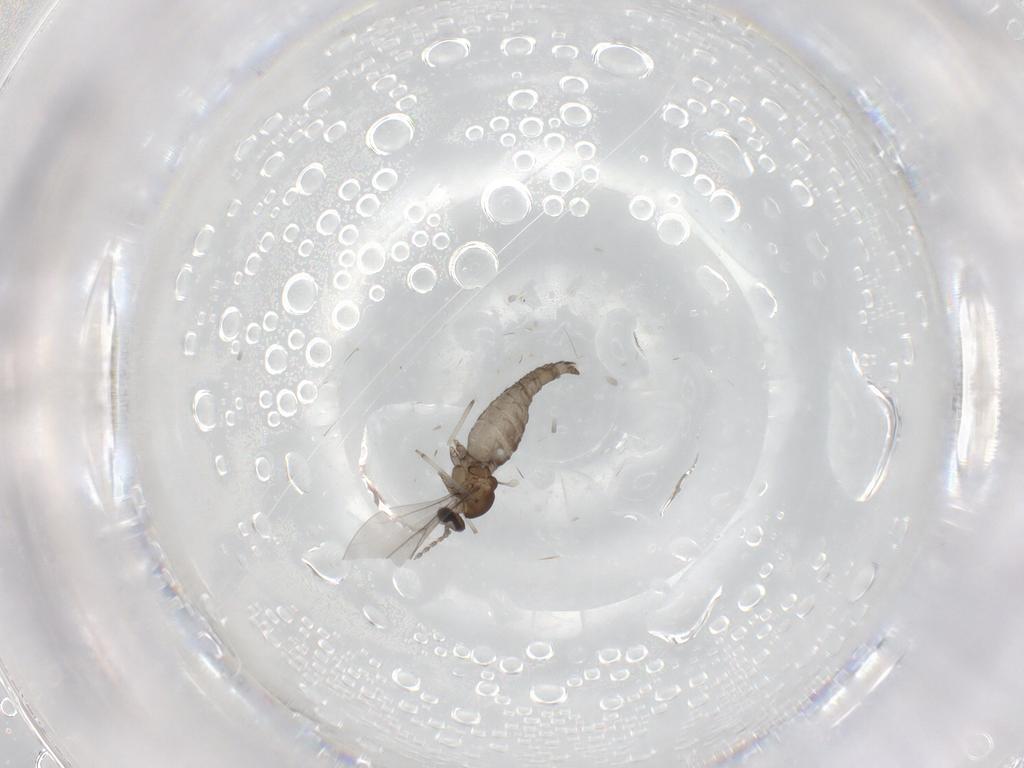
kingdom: Animalia
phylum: Arthropoda
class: Insecta
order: Diptera
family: Cecidomyiidae
